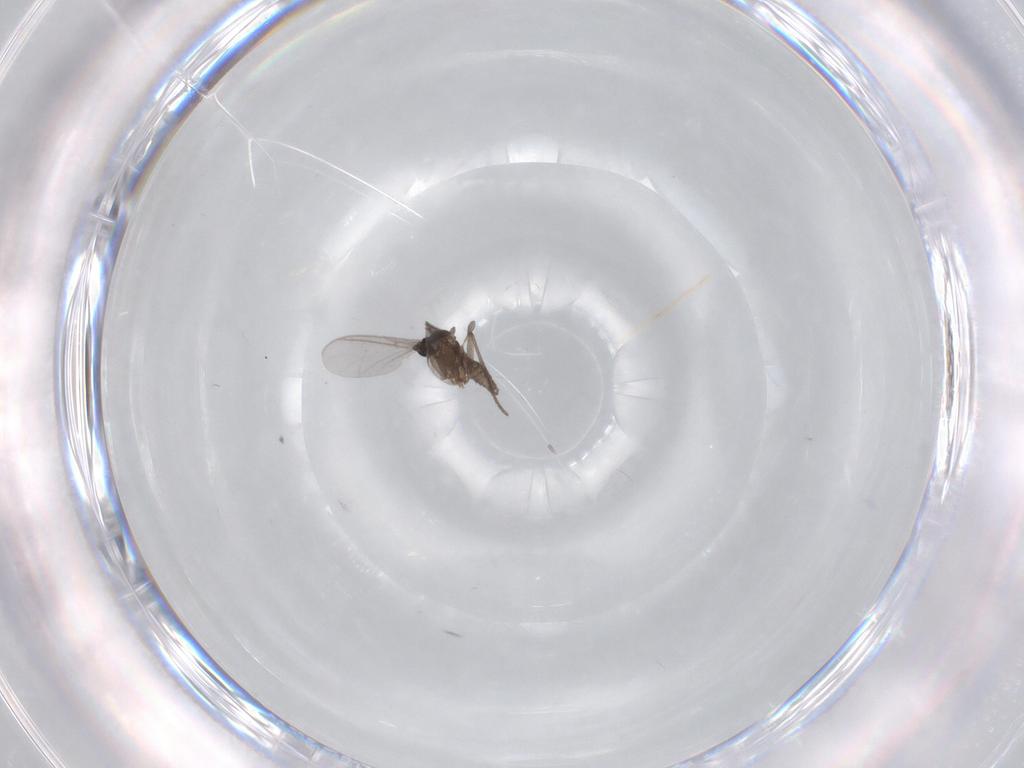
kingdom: Animalia
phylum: Arthropoda
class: Insecta
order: Diptera
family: Sciaridae
